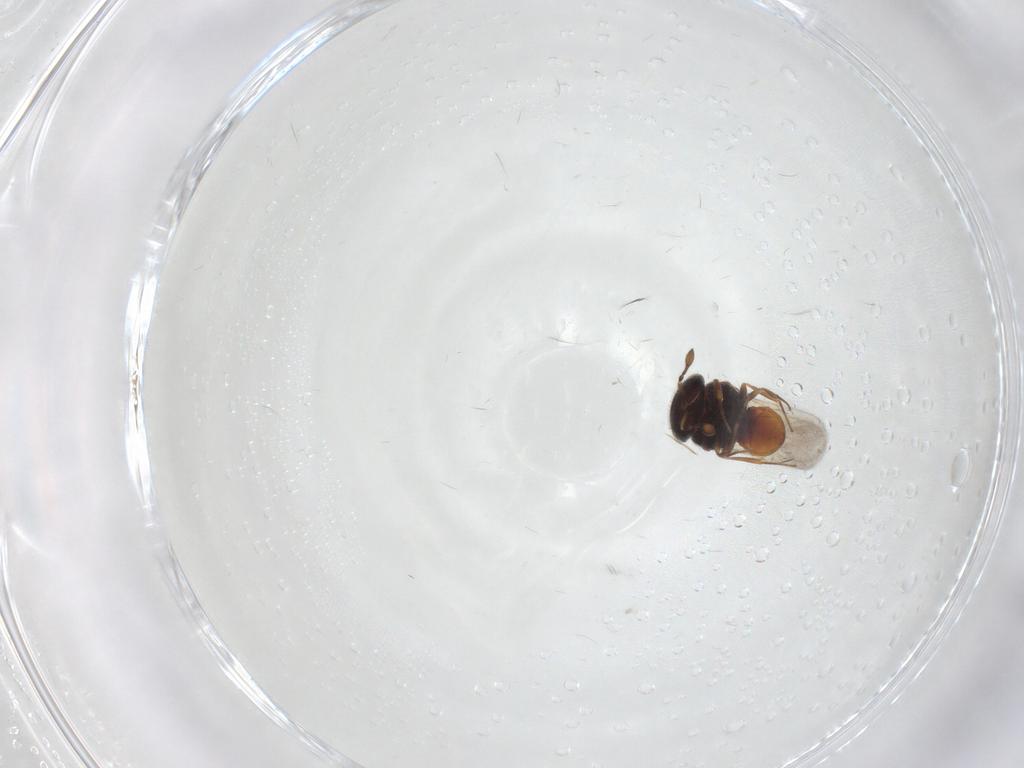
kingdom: Animalia
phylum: Arthropoda
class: Insecta
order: Hymenoptera
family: Scelionidae
